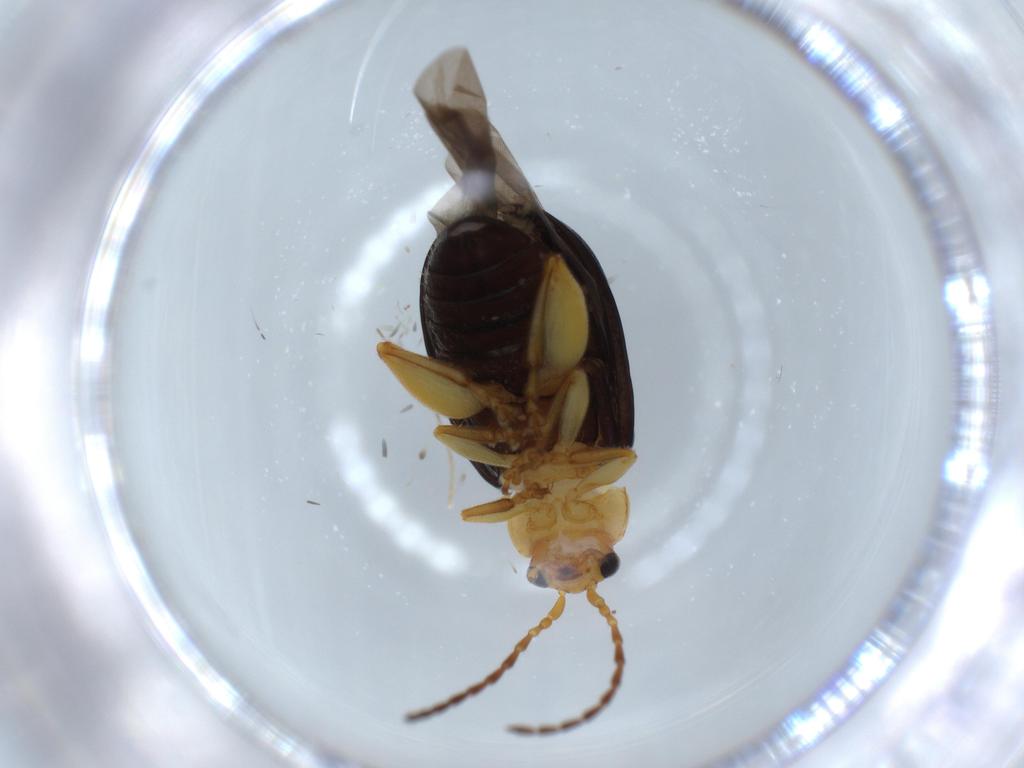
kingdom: Animalia
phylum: Arthropoda
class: Insecta
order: Coleoptera
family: Chrysomelidae
